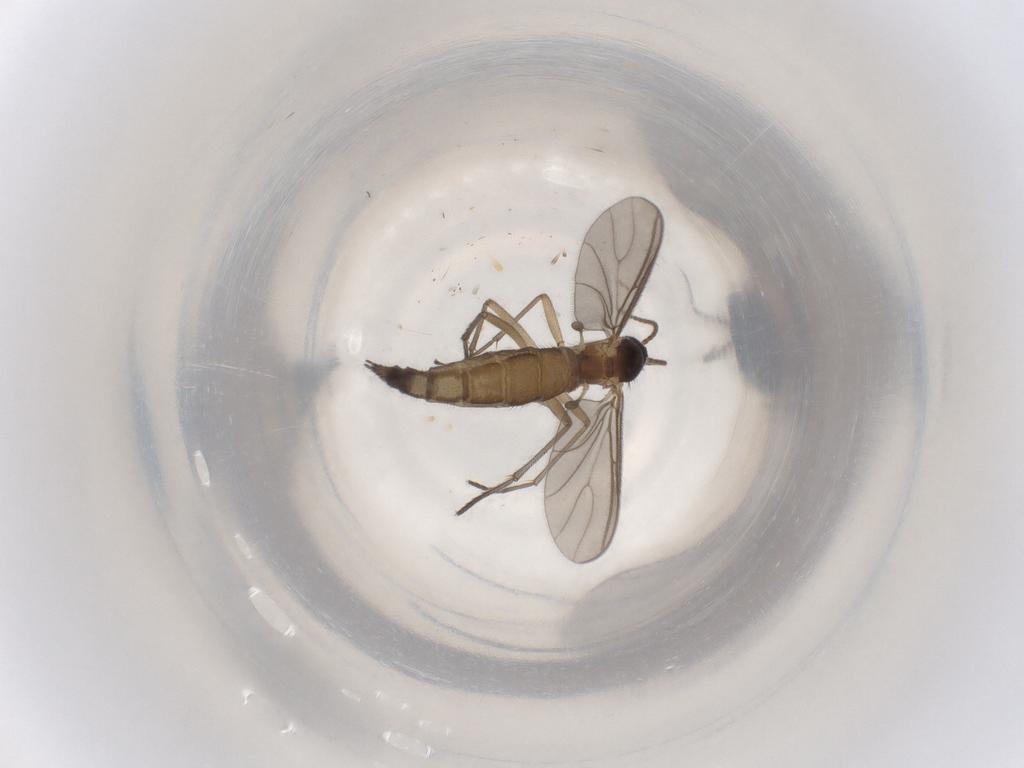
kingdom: Animalia
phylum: Arthropoda
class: Insecta
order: Diptera
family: Sciaridae
